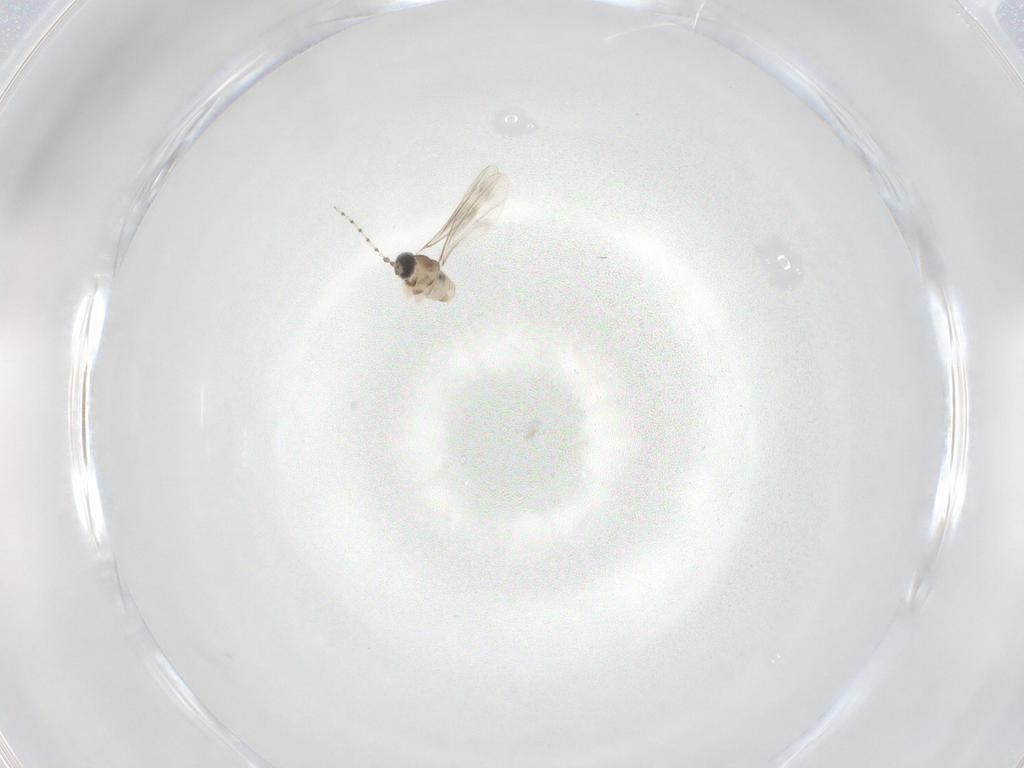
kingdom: Animalia
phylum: Arthropoda
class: Insecta
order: Diptera
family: Cecidomyiidae
